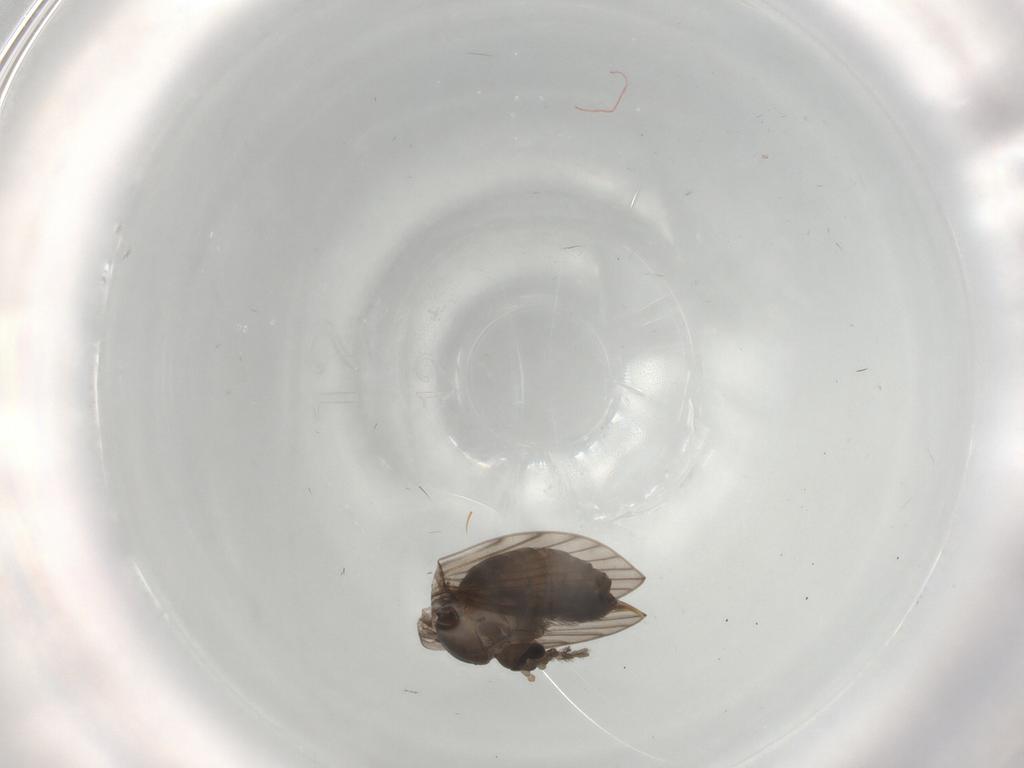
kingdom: Animalia
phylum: Arthropoda
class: Insecta
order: Diptera
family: Psychodidae
